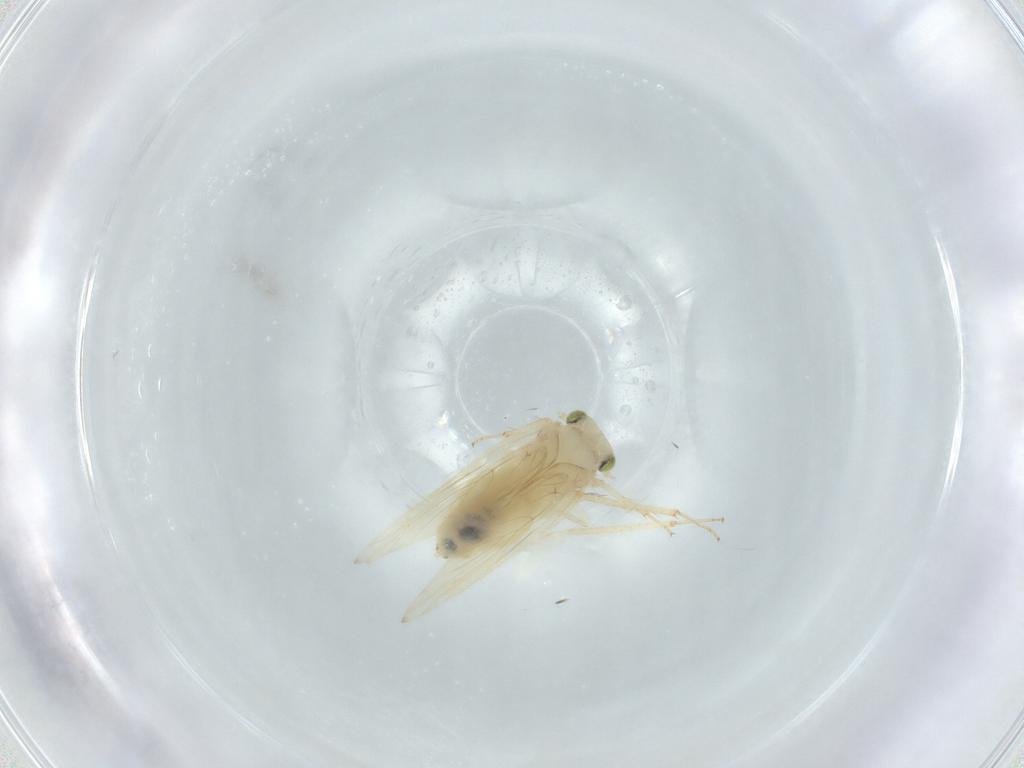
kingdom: Animalia
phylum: Arthropoda
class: Insecta
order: Psocodea
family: Lepidopsocidae
